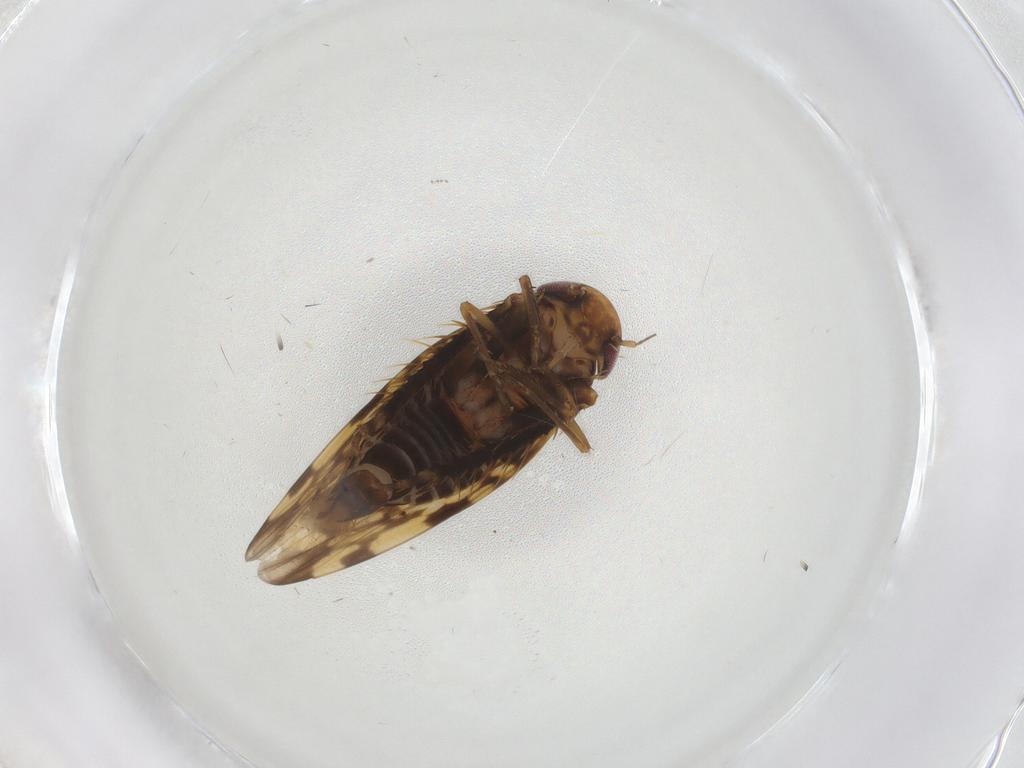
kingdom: Animalia
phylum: Arthropoda
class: Insecta
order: Hemiptera
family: Cicadellidae
